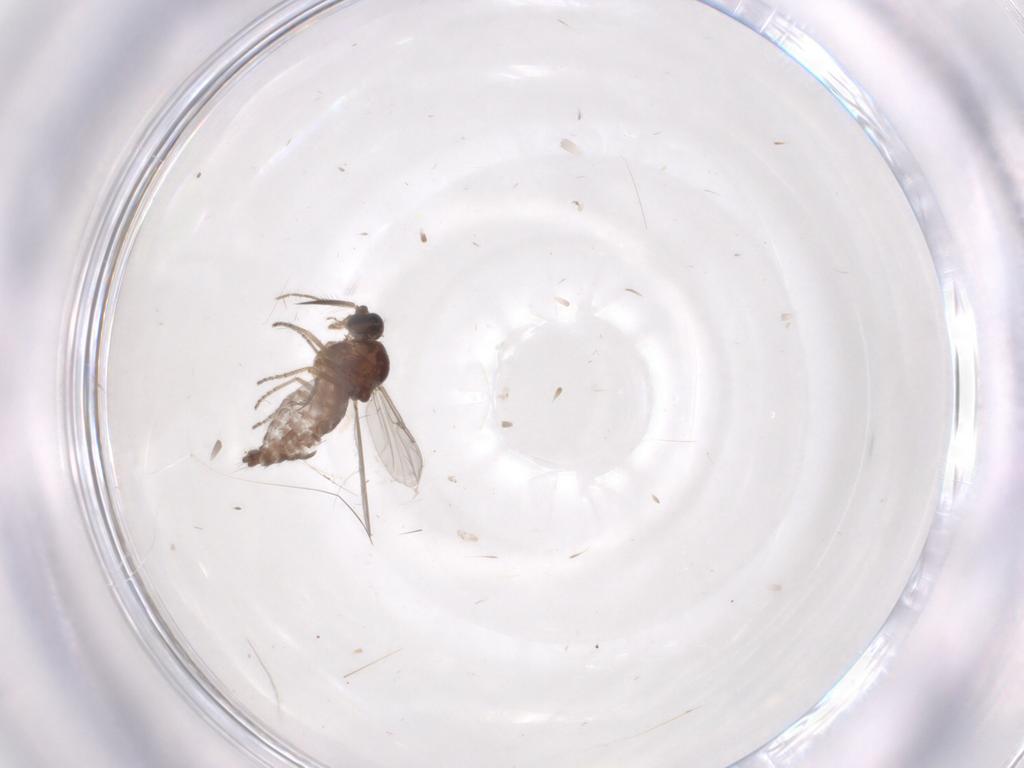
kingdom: Animalia
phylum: Arthropoda
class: Insecta
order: Diptera
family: Ceratopogonidae
